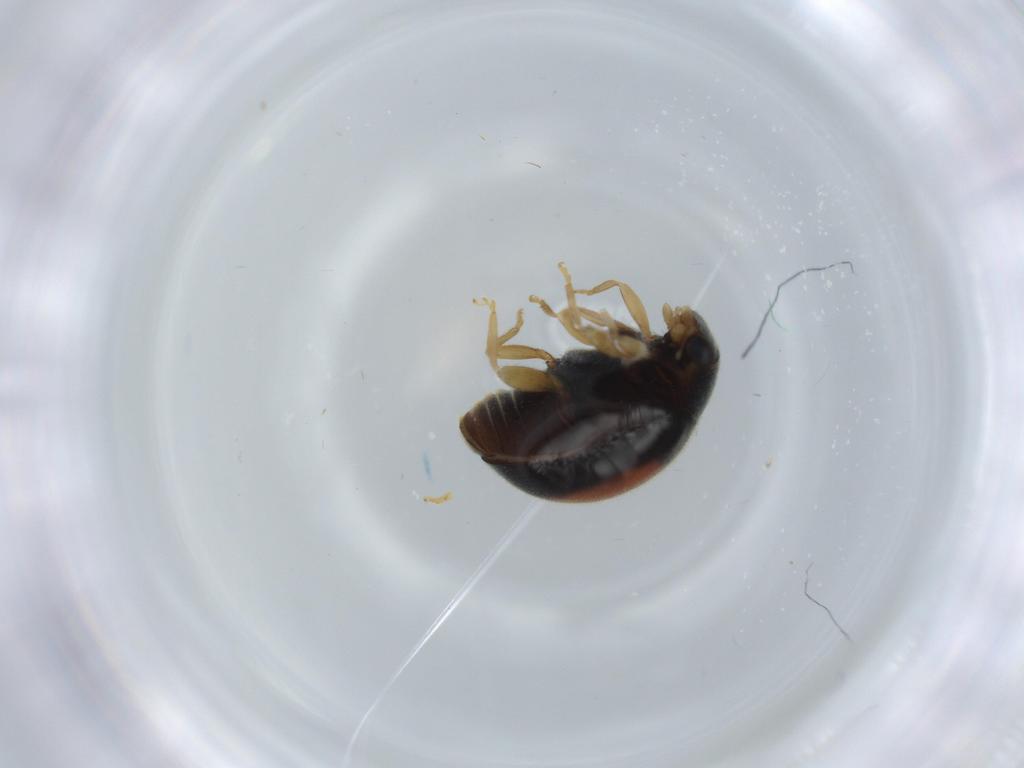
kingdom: Animalia
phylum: Arthropoda
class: Insecta
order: Coleoptera
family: Coccinellidae
